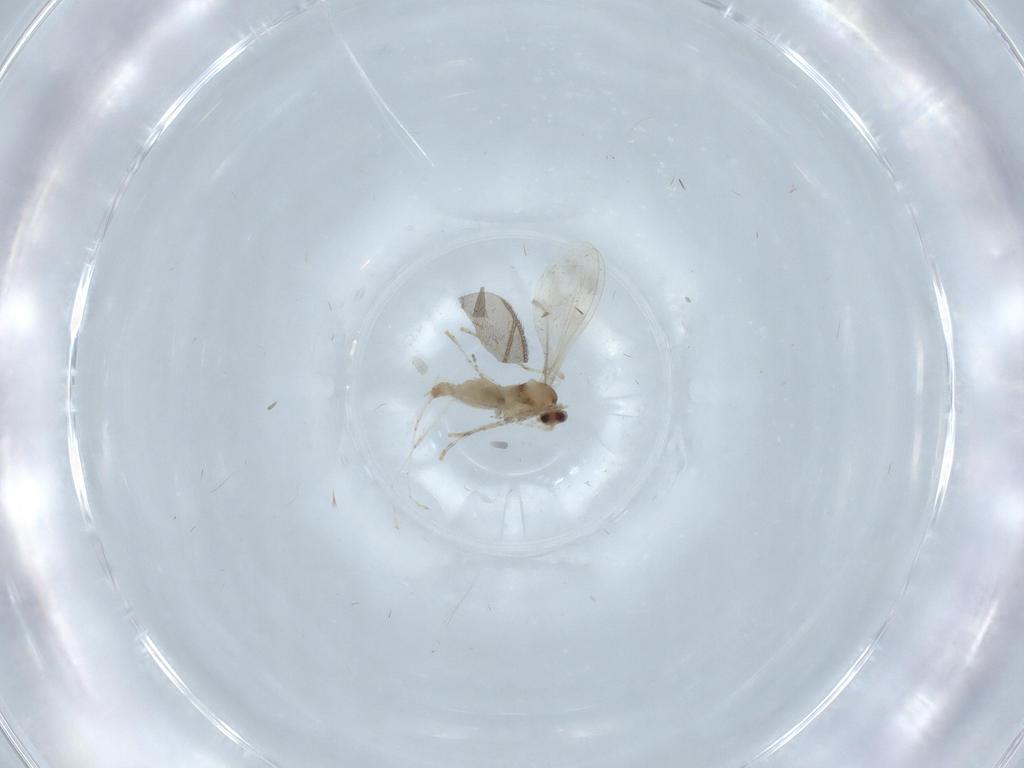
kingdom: Animalia
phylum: Arthropoda
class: Insecta
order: Diptera
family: Cecidomyiidae
